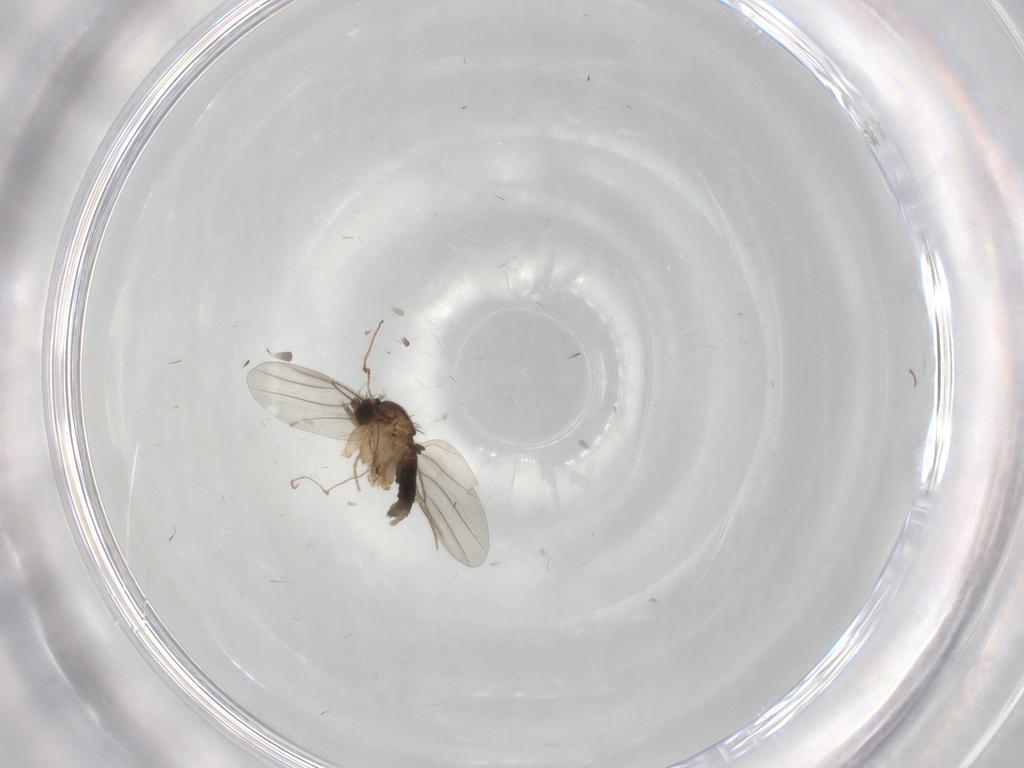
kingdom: Animalia
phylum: Arthropoda
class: Insecta
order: Diptera
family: Chironomidae
